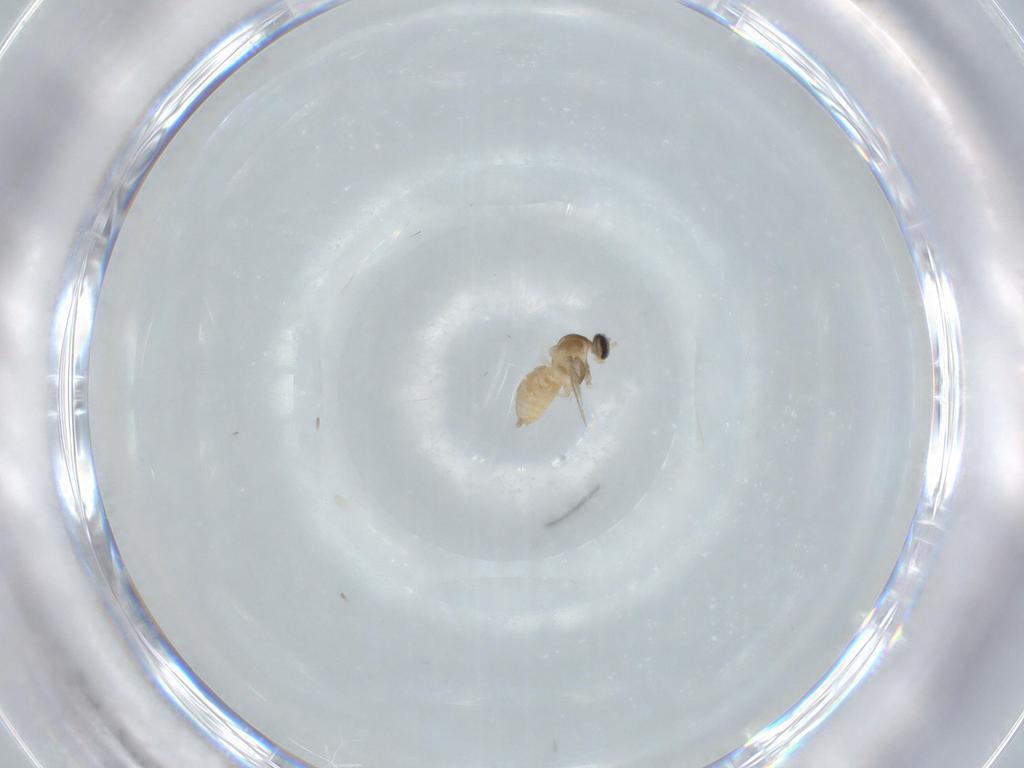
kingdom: Animalia
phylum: Arthropoda
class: Insecta
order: Diptera
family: Cecidomyiidae
